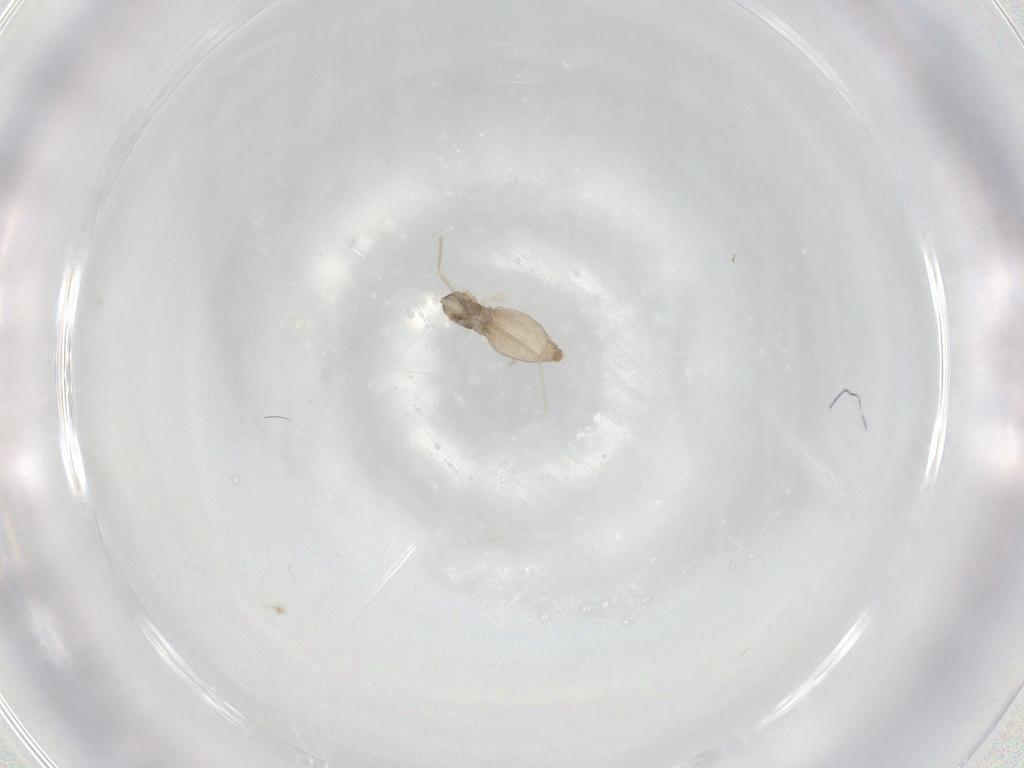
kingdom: Animalia
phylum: Arthropoda
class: Insecta
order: Diptera
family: Cecidomyiidae
